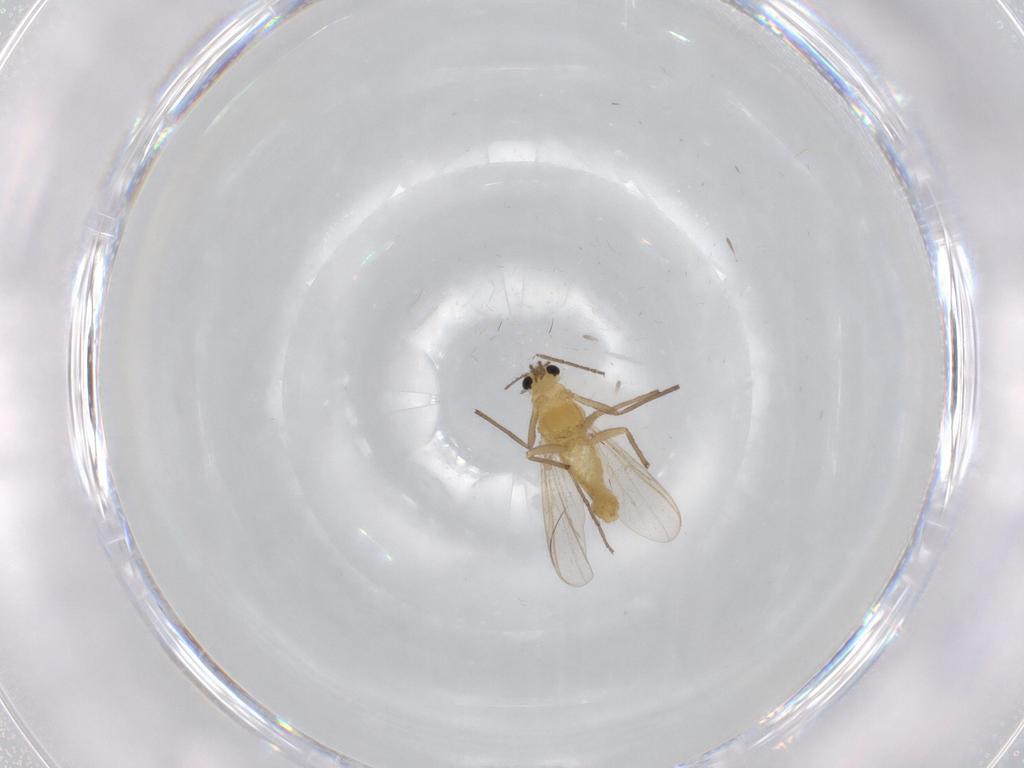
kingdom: Animalia
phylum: Arthropoda
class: Insecta
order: Diptera
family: Chironomidae
